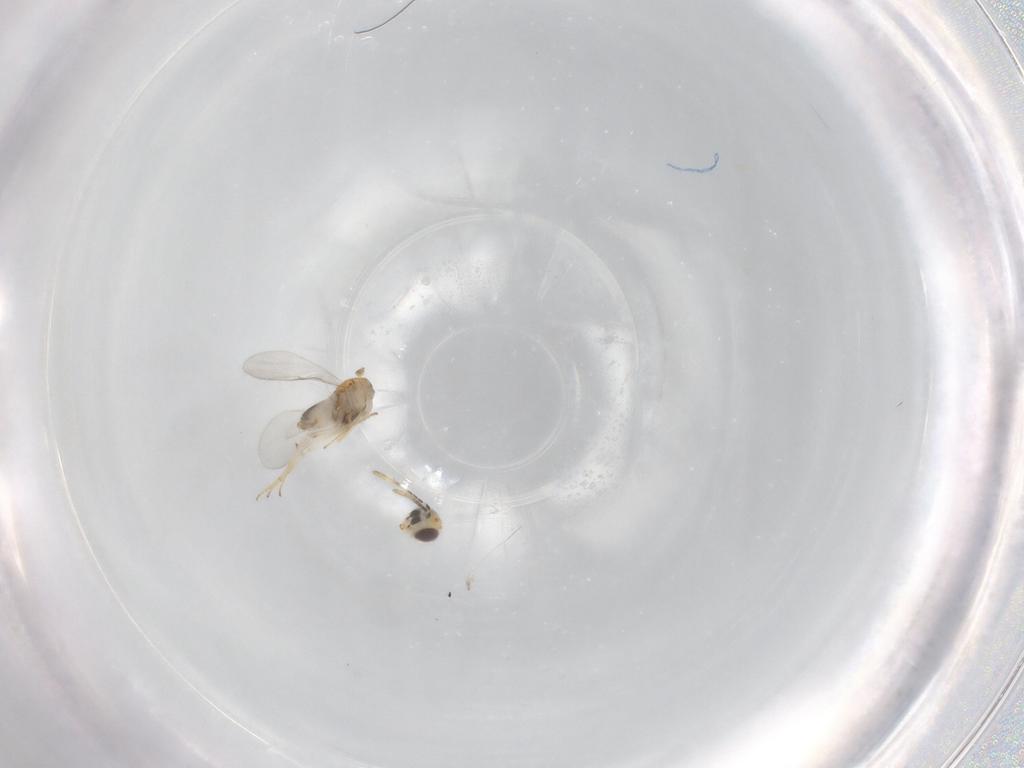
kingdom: Animalia
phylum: Arthropoda
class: Insecta
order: Hymenoptera
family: Encyrtidae
